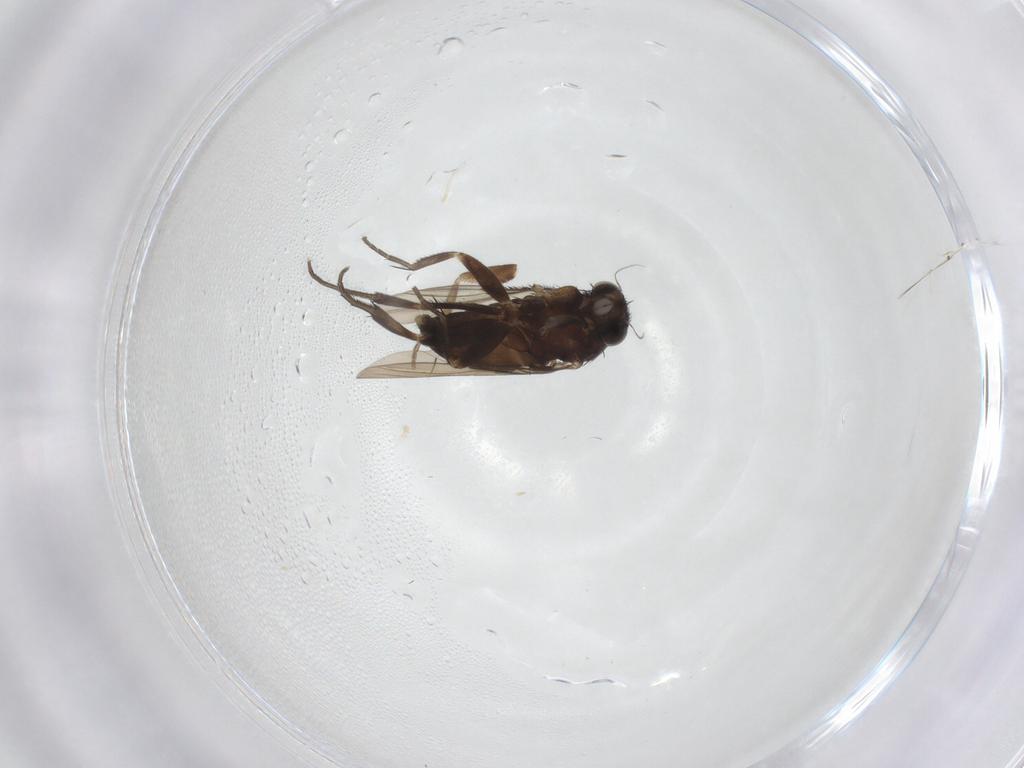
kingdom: Animalia
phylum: Arthropoda
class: Insecta
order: Diptera
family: Phoridae
